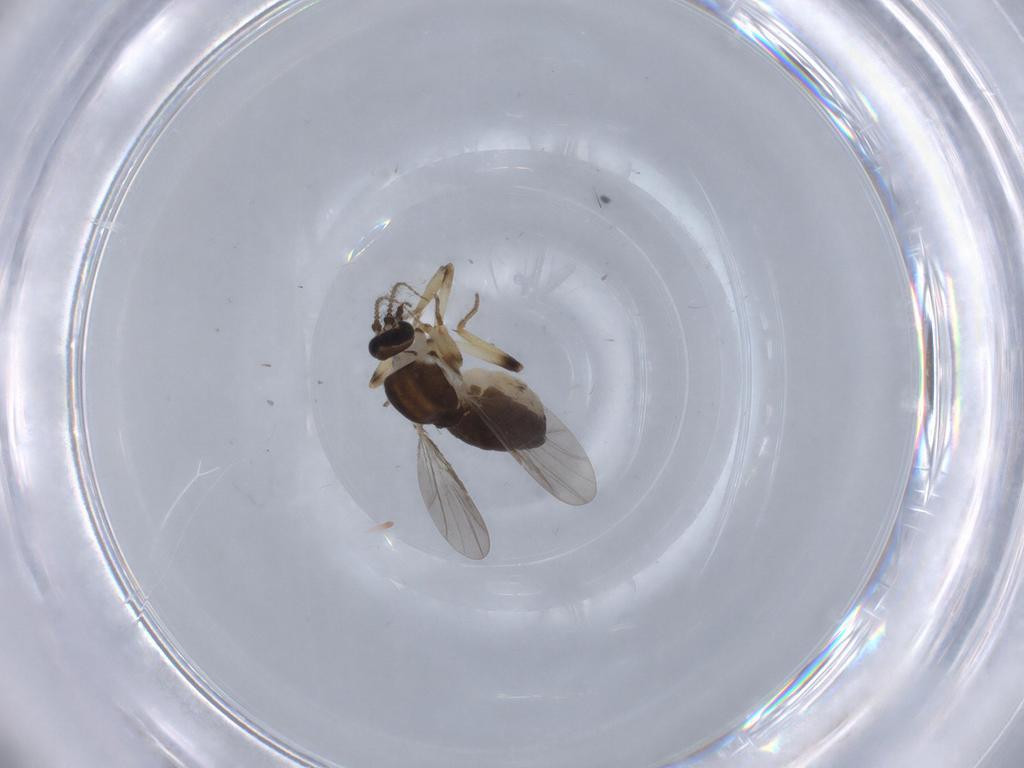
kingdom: Animalia
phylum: Arthropoda
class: Insecta
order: Diptera
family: Ceratopogonidae
